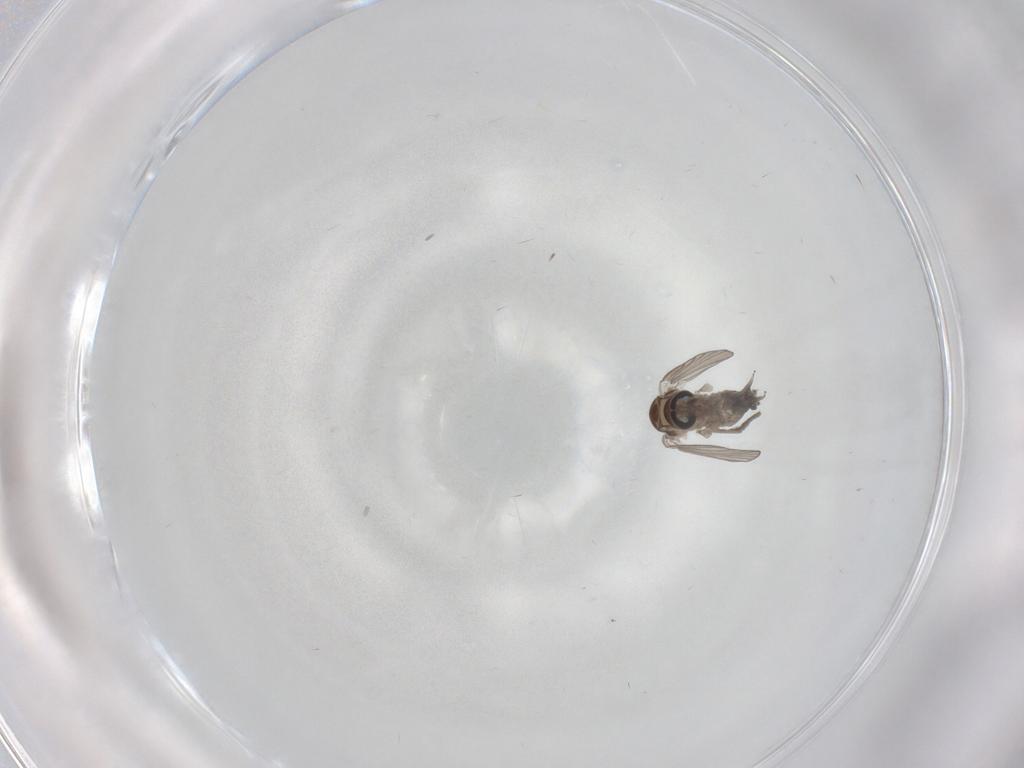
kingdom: Animalia
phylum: Arthropoda
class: Insecta
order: Diptera
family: Psychodidae
